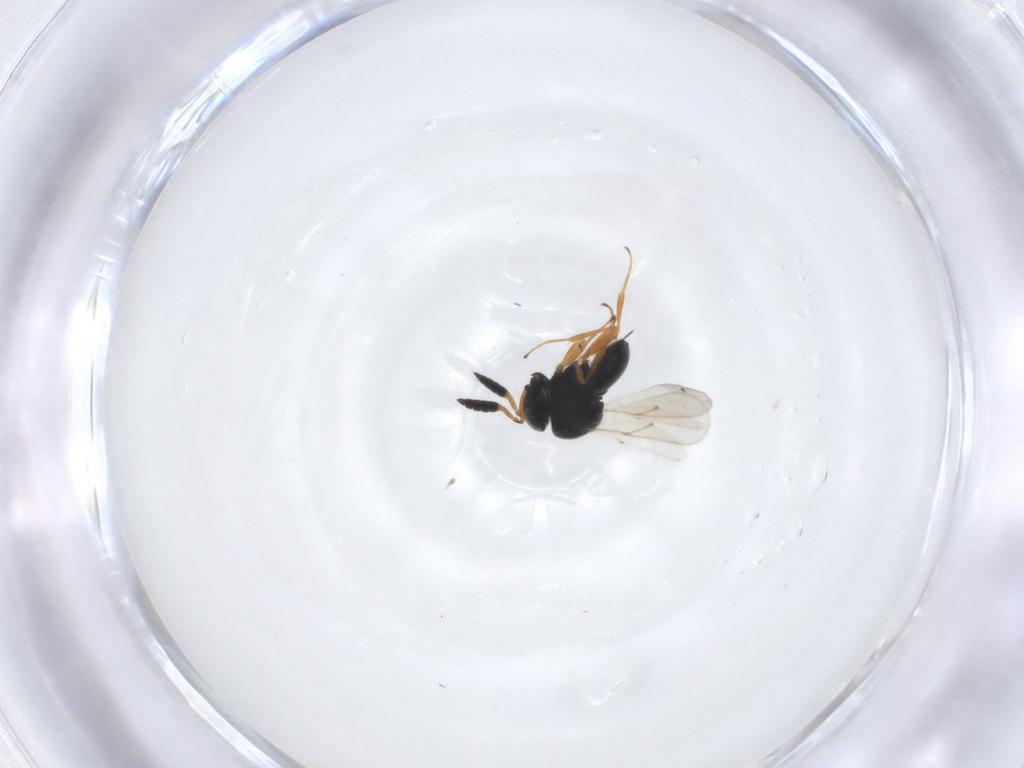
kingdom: Animalia
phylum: Arthropoda
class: Insecta
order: Hymenoptera
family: Scelionidae
